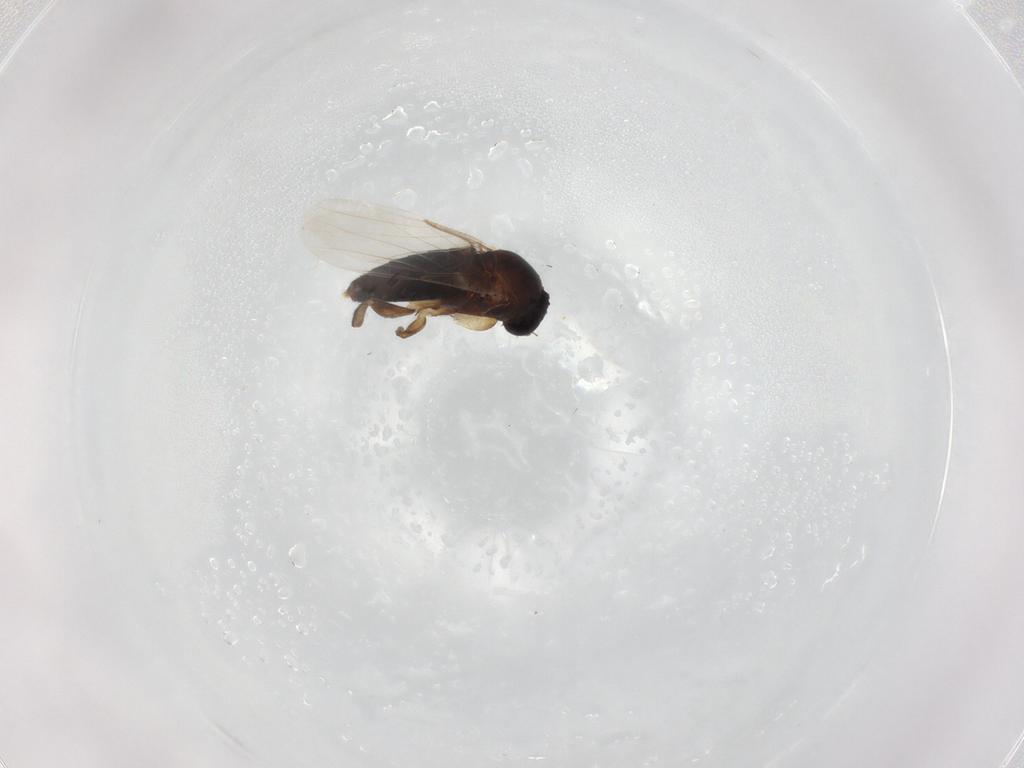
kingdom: Animalia
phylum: Arthropoda
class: Insecta
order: Diptera
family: Phoridae
